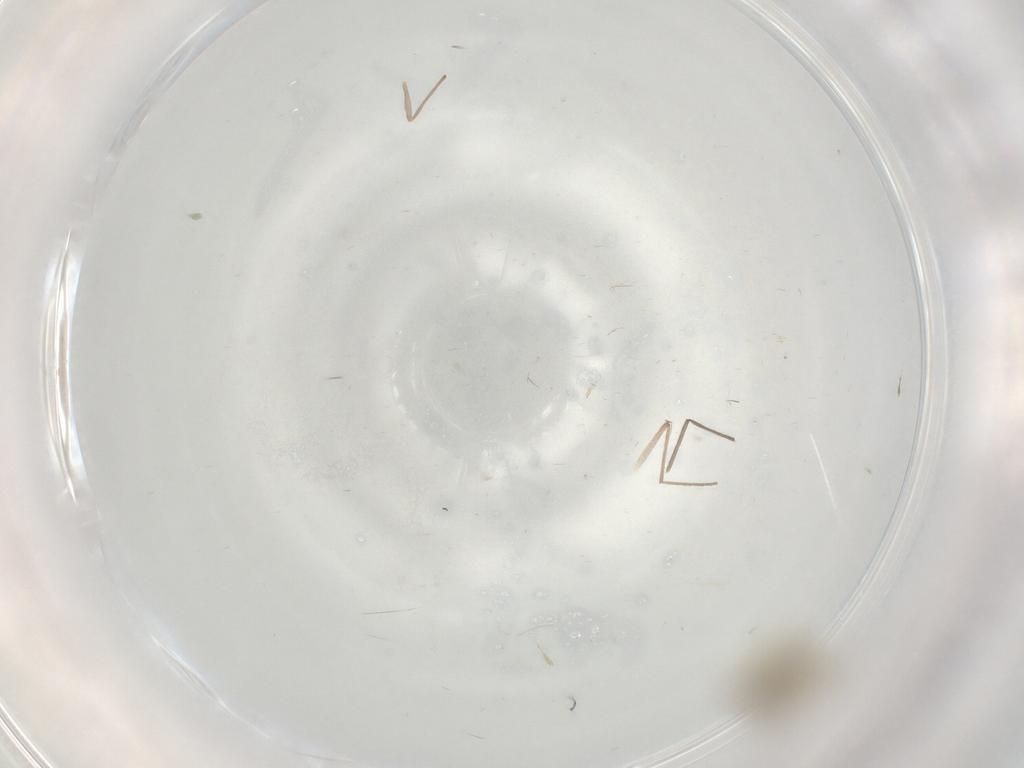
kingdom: Animalia
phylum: Arthropoda
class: Insecta
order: Diptera
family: Chironomidae
